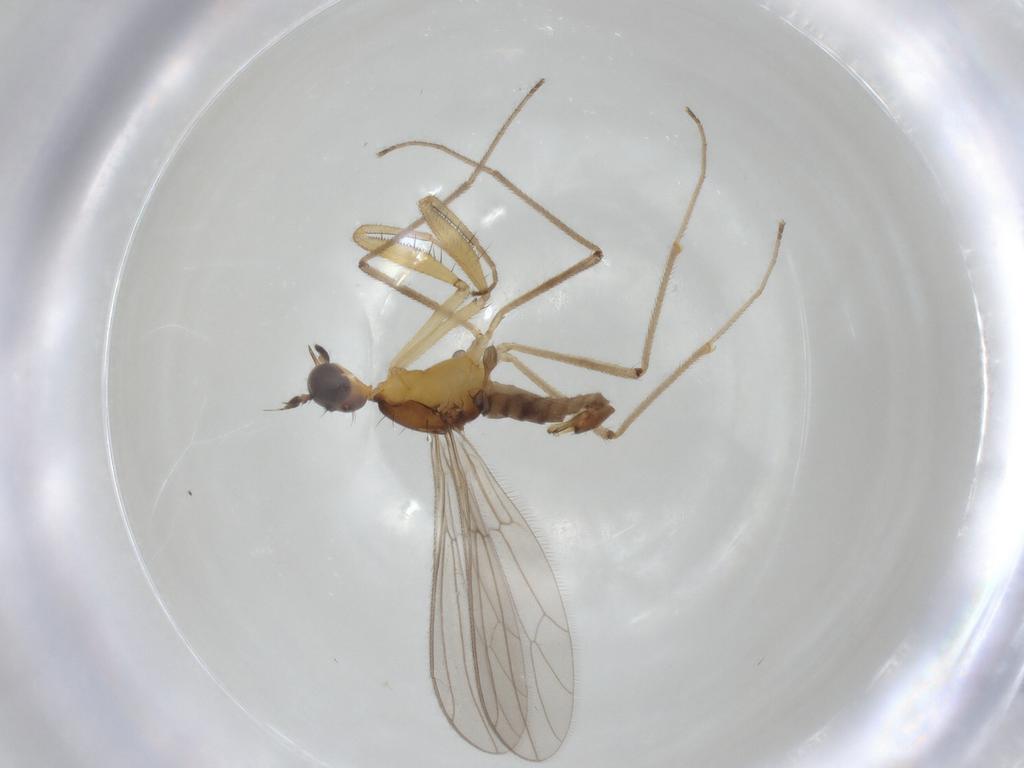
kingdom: Animalia
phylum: Arthropoda
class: Insecta
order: Diptera
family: Empididae
